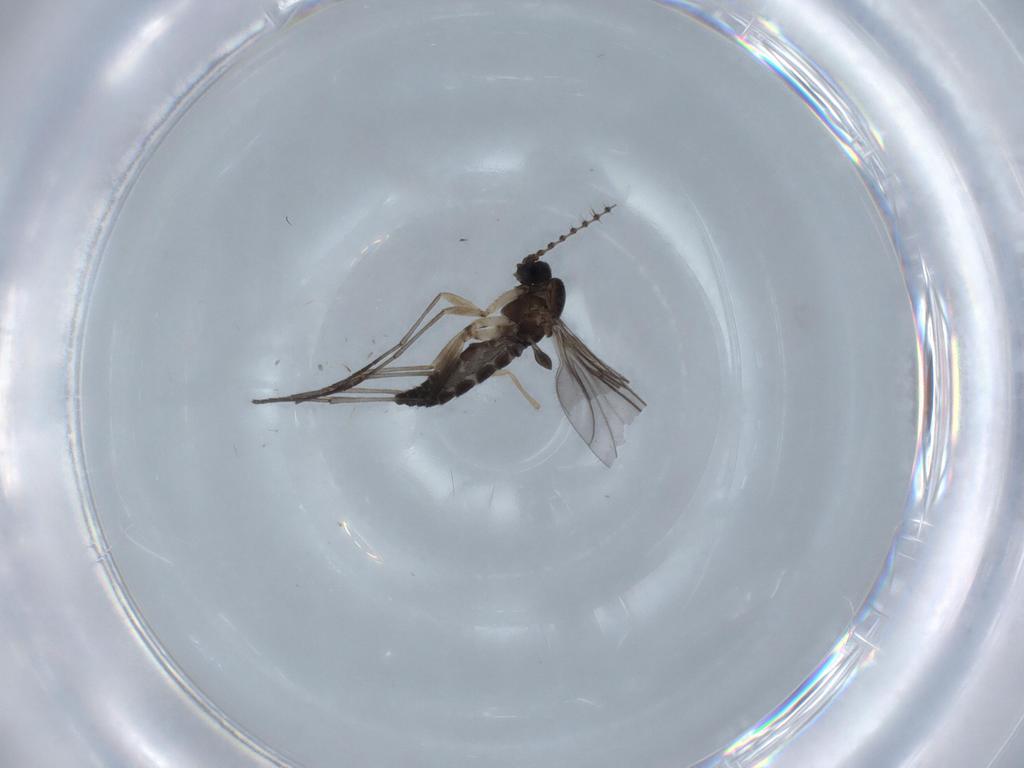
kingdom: Animalia
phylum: Arthropoda
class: Insecta
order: Diptera
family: Sciaridae
